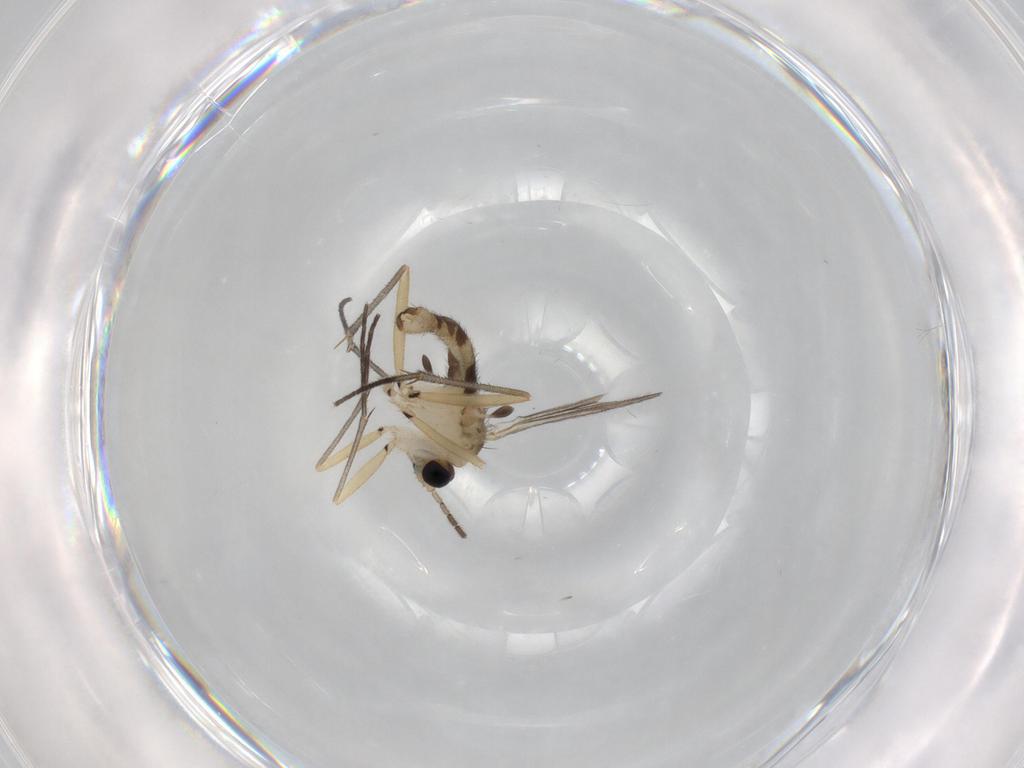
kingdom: Animalia
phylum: Arthropoda
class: Insecta
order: Diptera
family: Sciaridae
